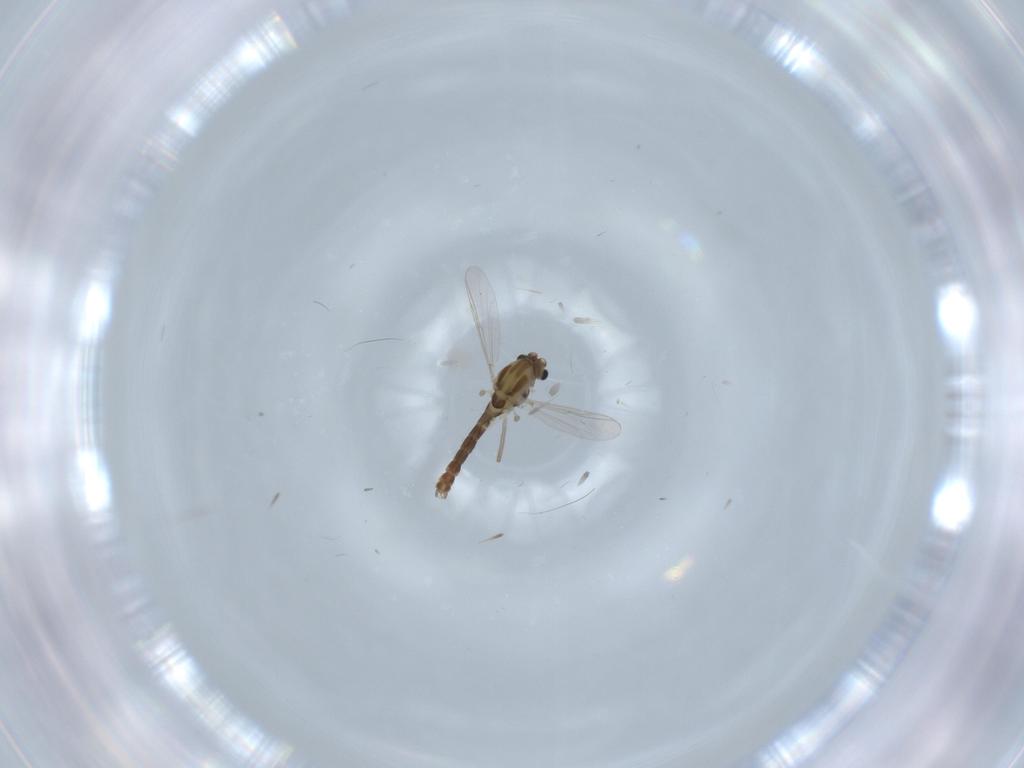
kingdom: Animalia
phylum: Arthropoda
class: Insecta
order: Diptera
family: Chironomidae
